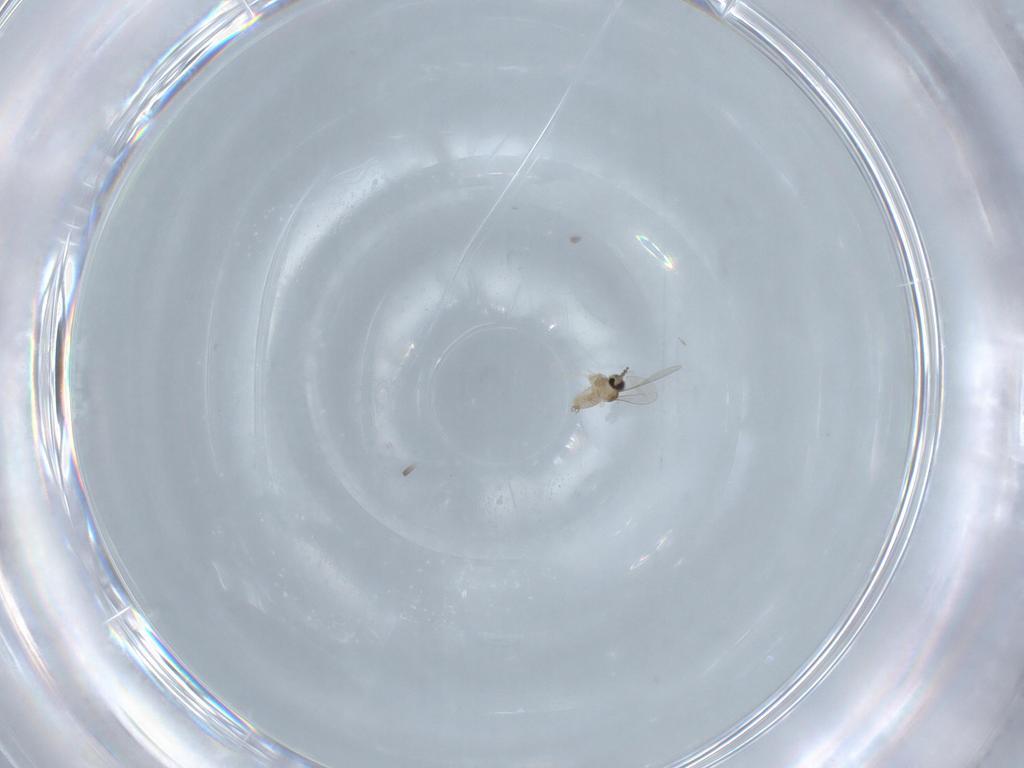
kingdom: Animalia
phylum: Arthropoda
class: Insecta
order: Diptera
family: Cecidomyiidae
